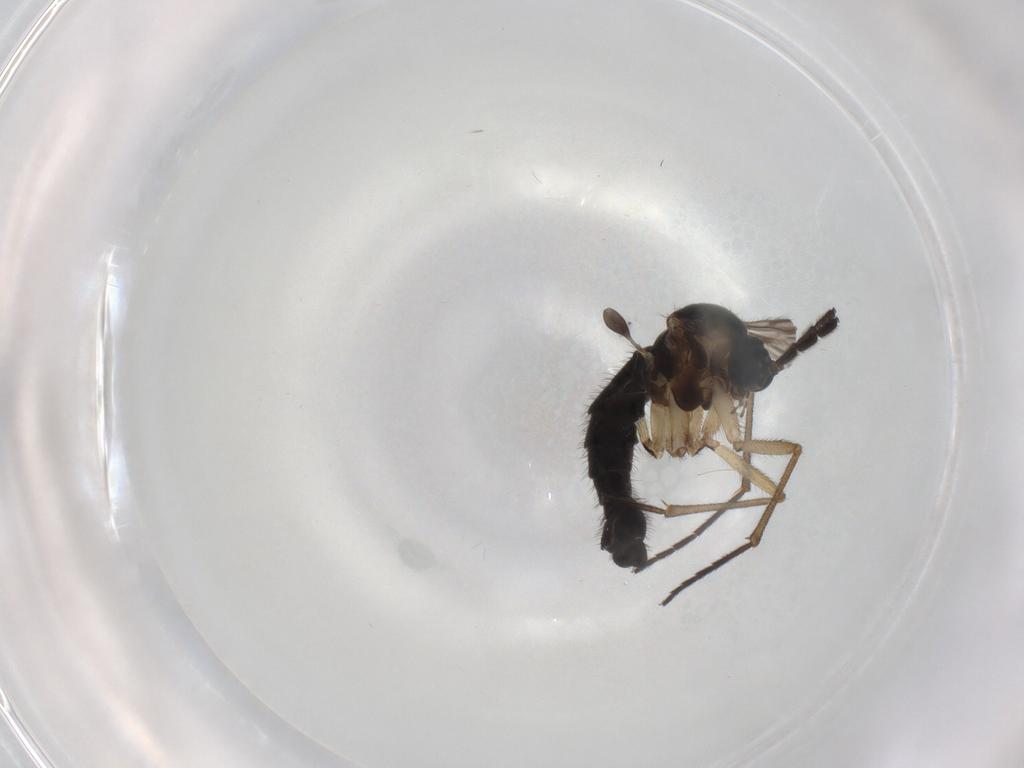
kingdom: Animalia
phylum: Arthropoda
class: Insecta
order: Diptera
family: Sciaridae
